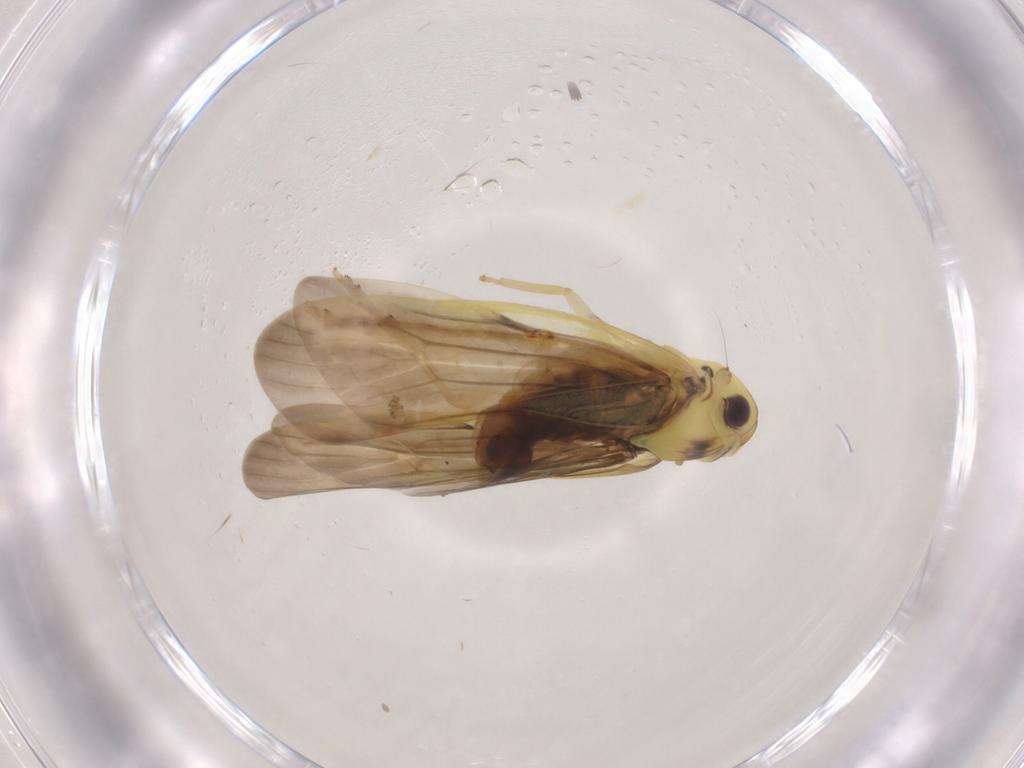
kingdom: Animalia
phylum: Arthropoda
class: Insecta
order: Hemiptera
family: Achilidae
